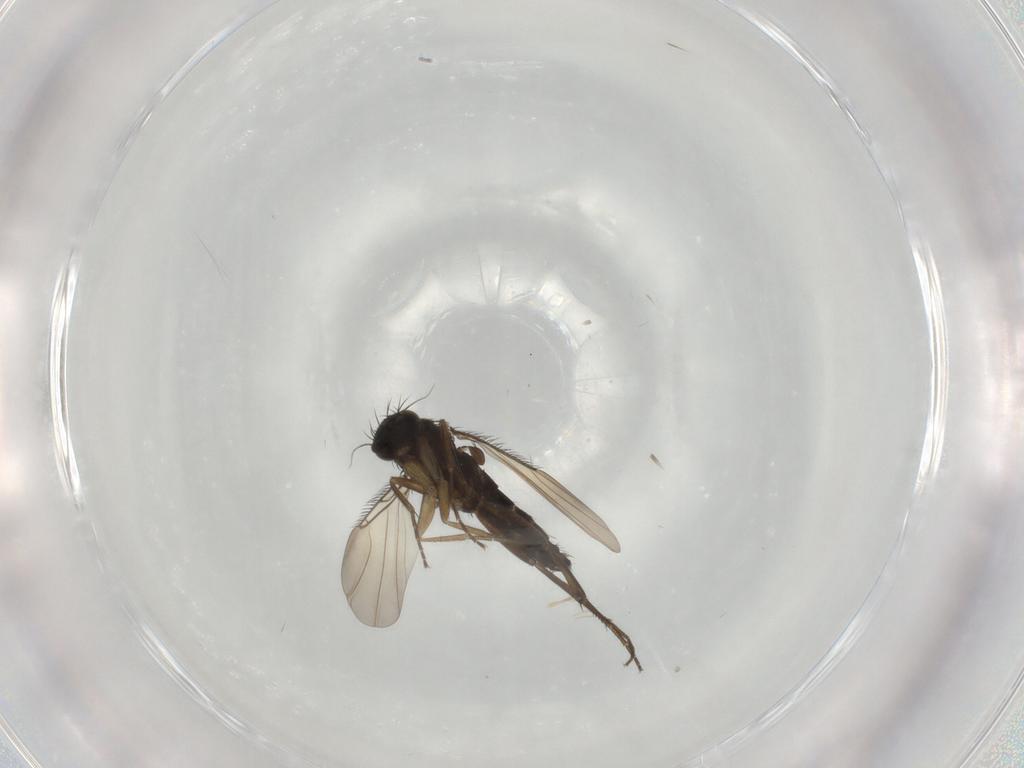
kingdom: Animalia
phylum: Arthropoda
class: Insecta
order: Diptera
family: Phoridae
